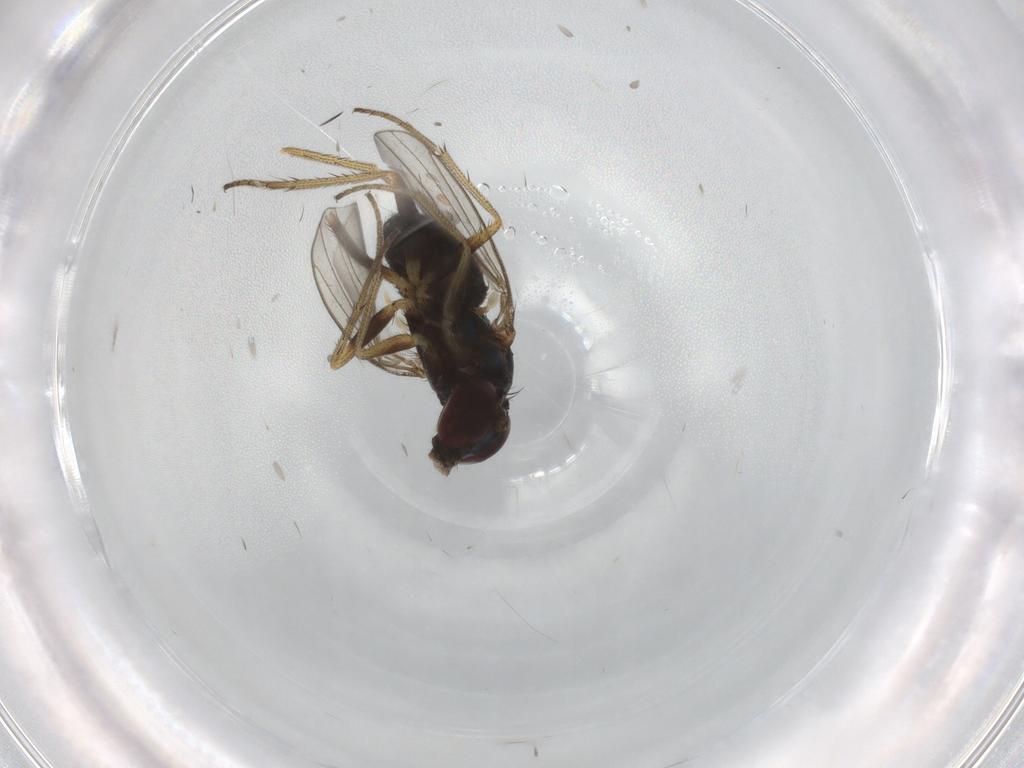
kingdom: Animalia
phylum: Arthropoda
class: Insecta
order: Diptera
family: Dolichopodidae
